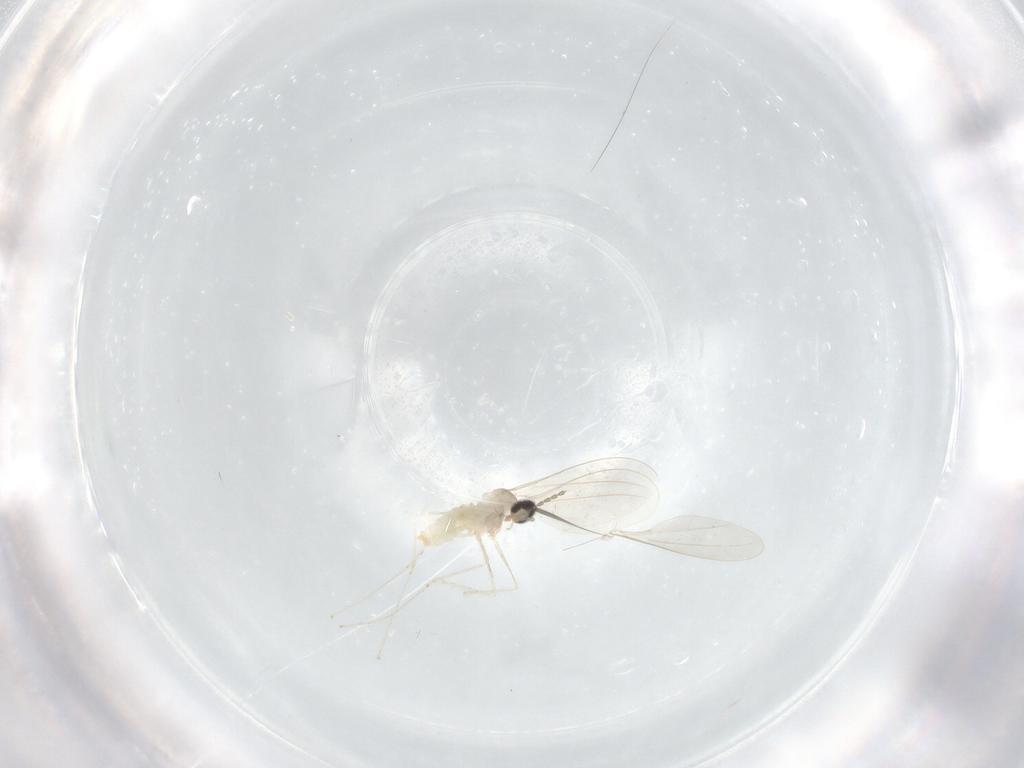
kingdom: Animalia
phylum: Arthropoda
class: Insecta
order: Diptera
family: Cecidomyiidae
